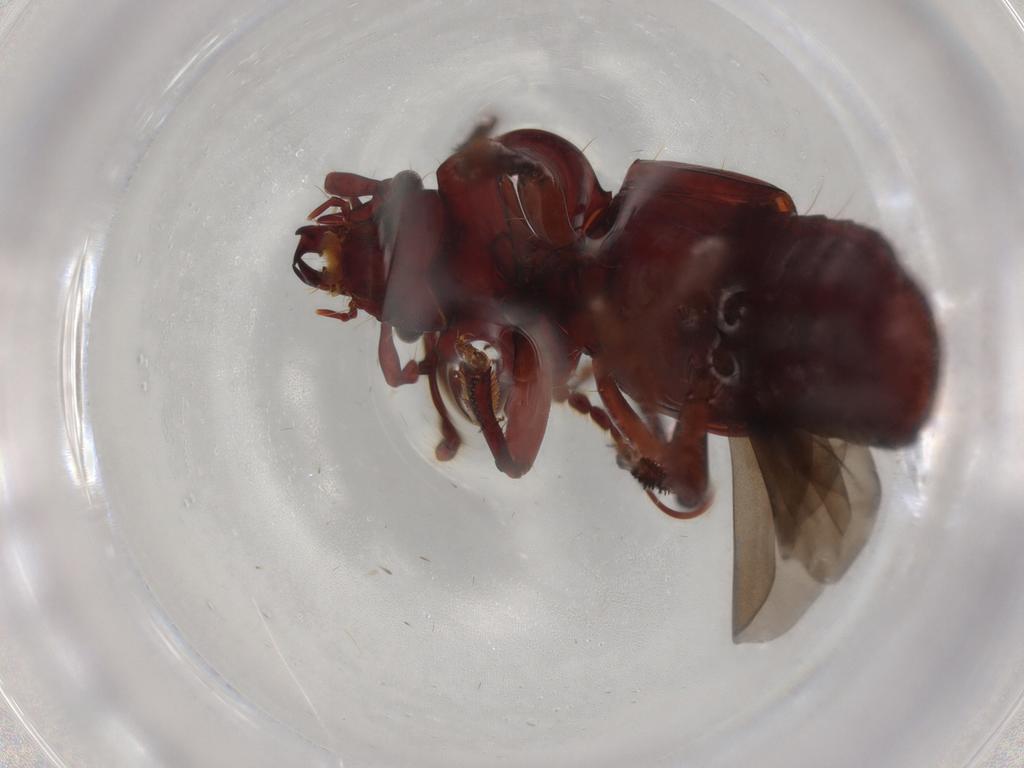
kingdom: Animalia
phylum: Arthropoda
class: Insecta
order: Coleoptera
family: Staphylinidae
